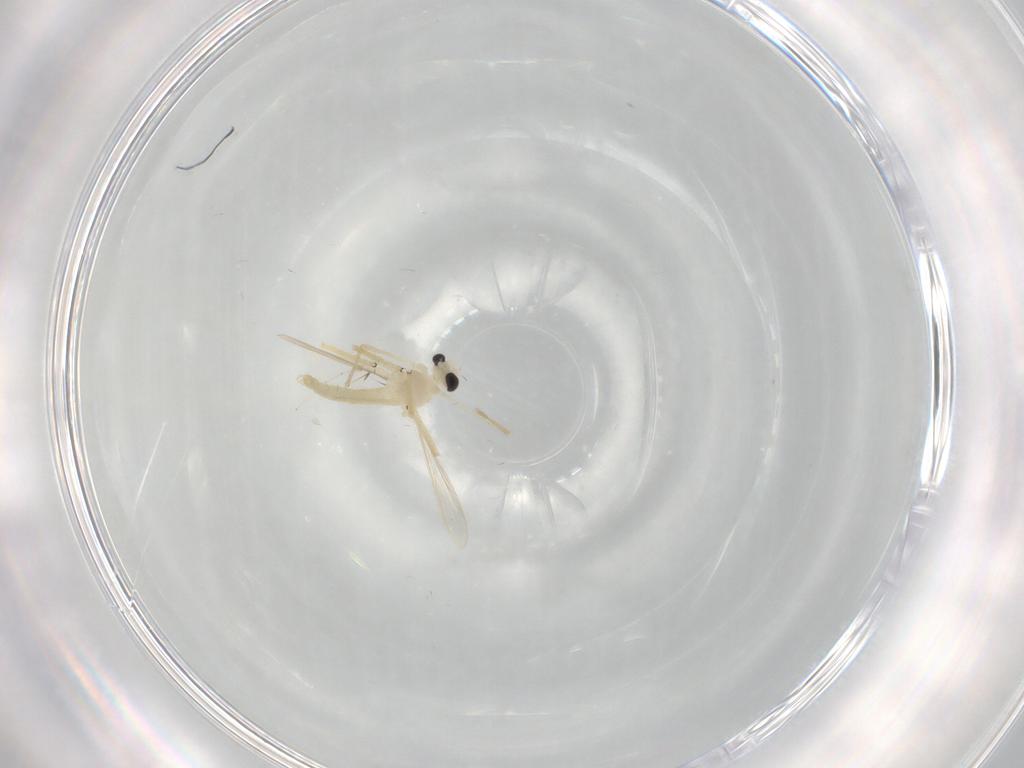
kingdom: Animalia
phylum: Arthropoda
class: Insecta
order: Diptera
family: Chironomidae
